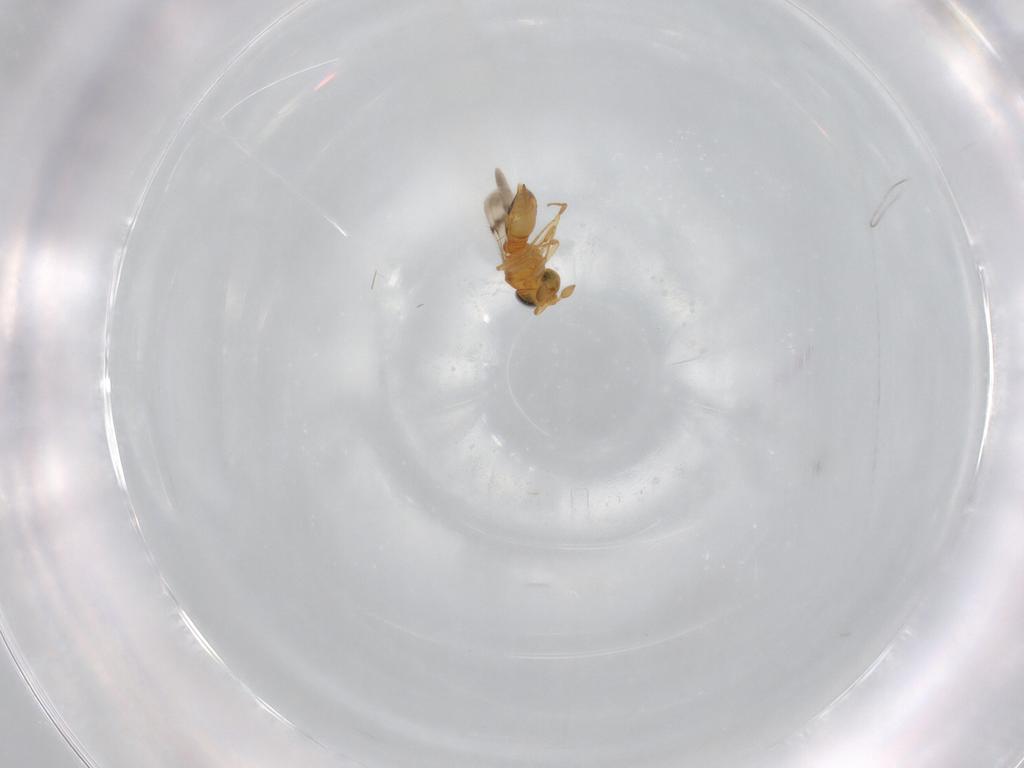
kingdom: Animalia
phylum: Arthropoda
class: Insecta
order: Hymenoptera
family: Scelionidae
